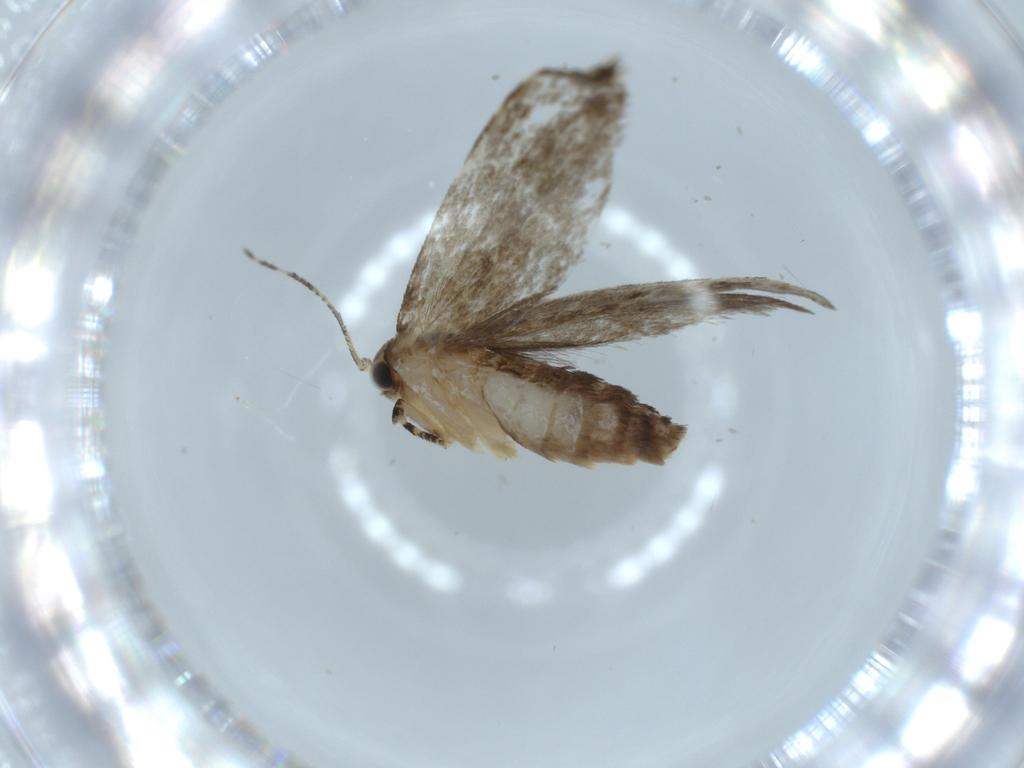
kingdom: Animalia
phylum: Arthropoda
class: Insecta
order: Lepidoptera
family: Tineidae
